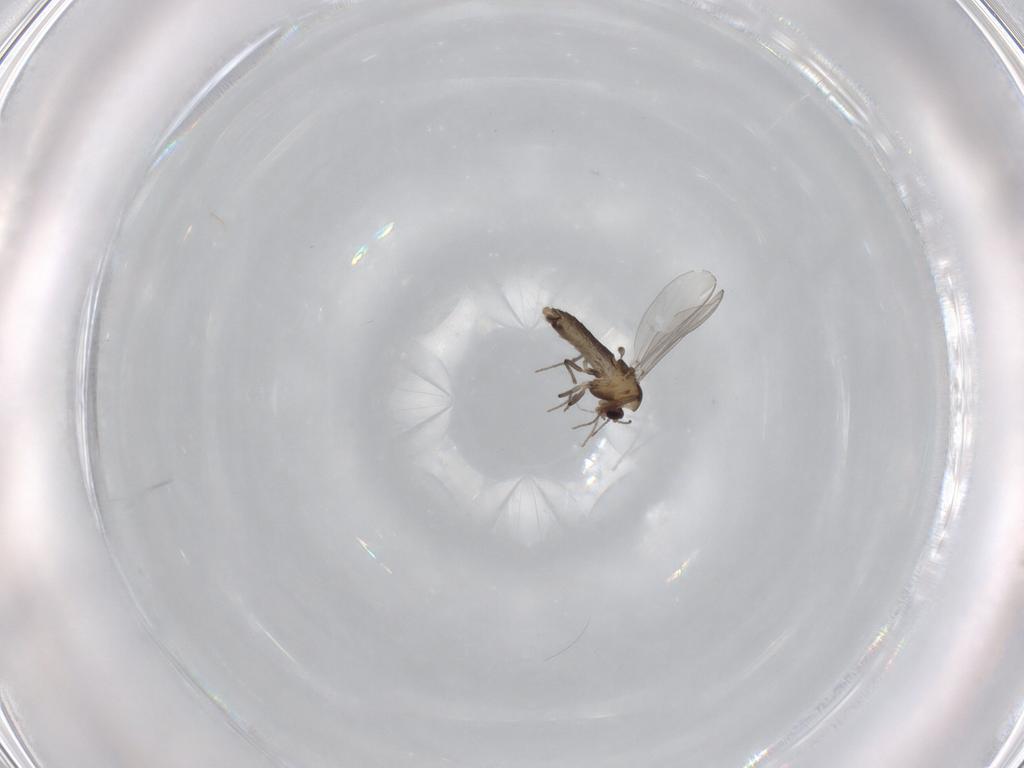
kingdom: Animalia
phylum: Arthropoda
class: Insecta
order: Diptera
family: Chironomidae
